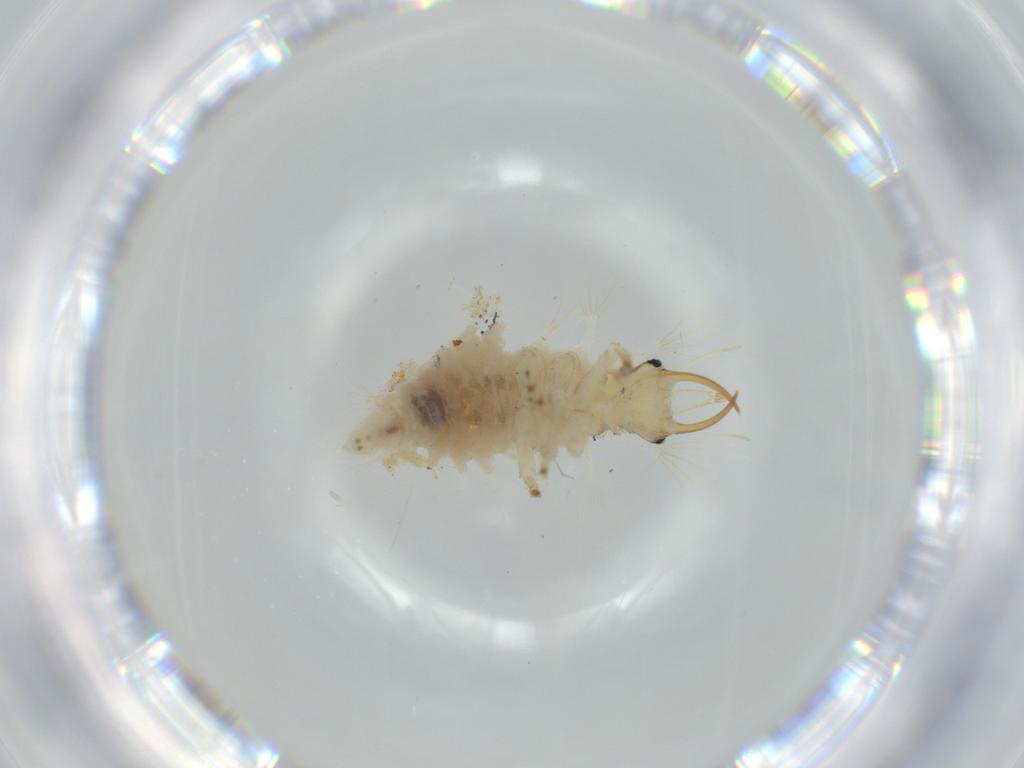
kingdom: Animalia
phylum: Arthropoda
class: Insecta
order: Neuroptera
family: Chrysopidae
